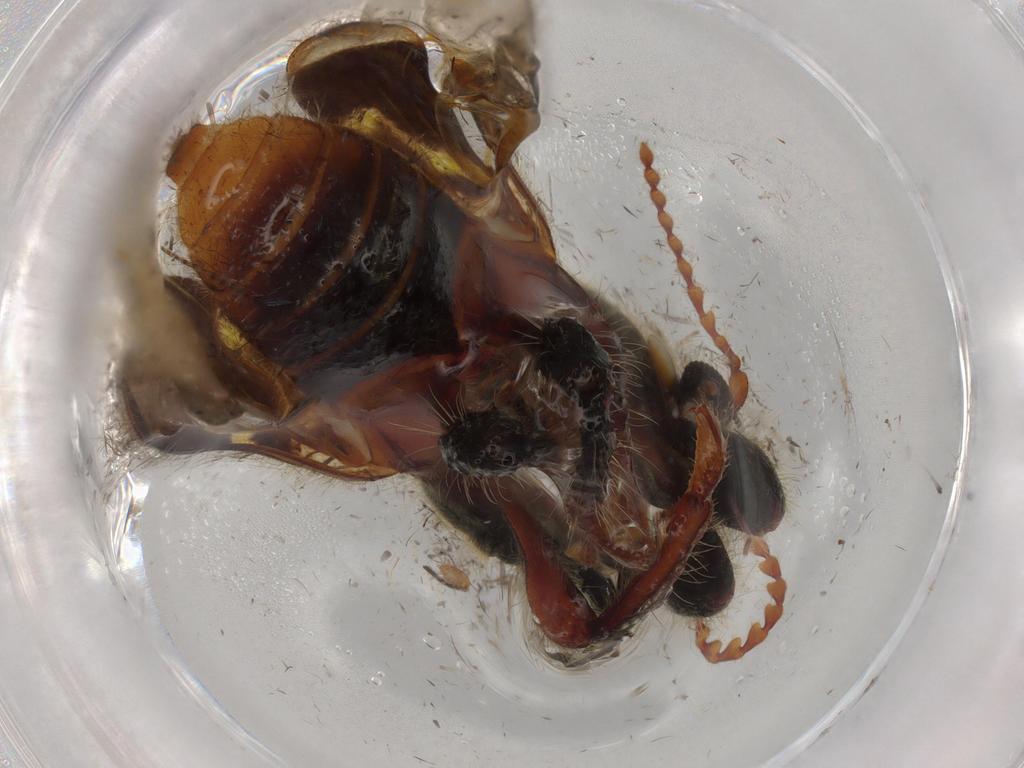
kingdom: Animalia
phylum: Arthropoda
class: Insecta
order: Coleoptera
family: Cleridae
